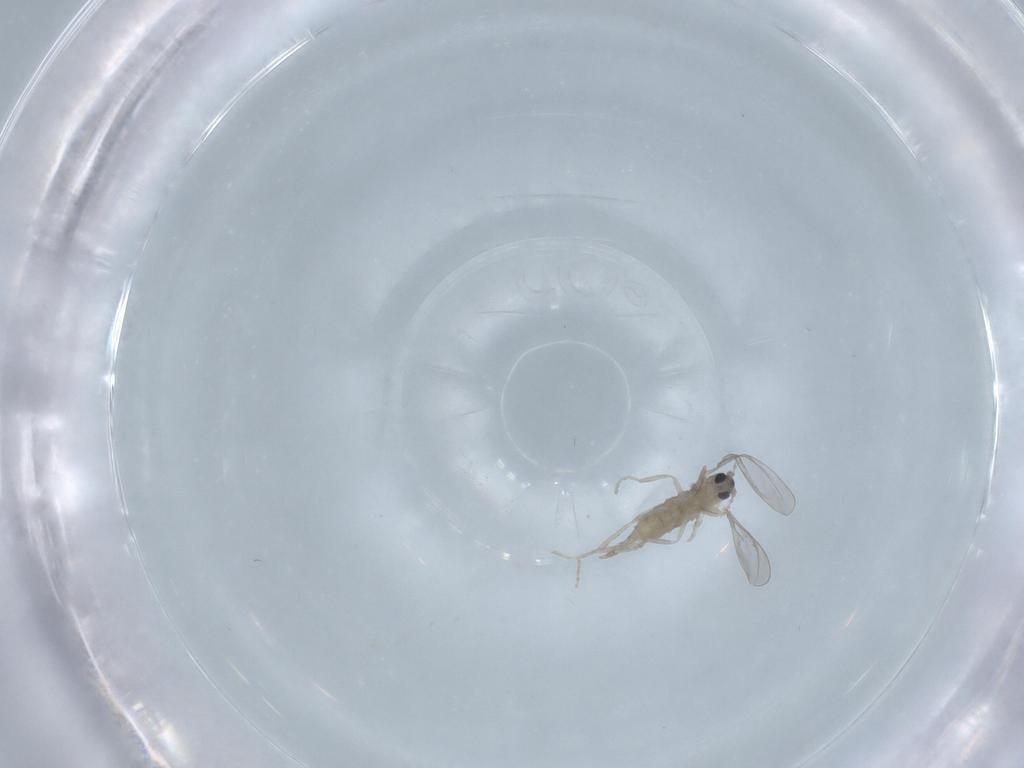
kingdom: Animalia
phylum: Arthropoda
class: Insecta
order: Diptera
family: Cecidomyiidae
